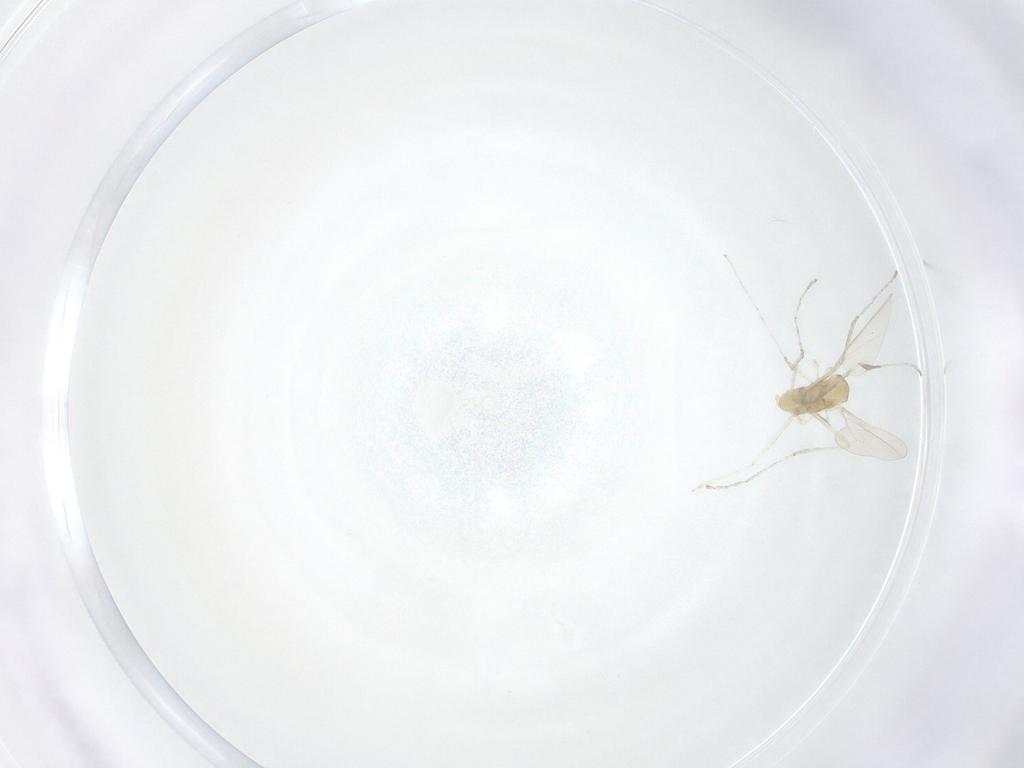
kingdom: Animalia
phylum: Arthropoda
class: Insecta
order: Diptera
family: Cecidomyiidae
